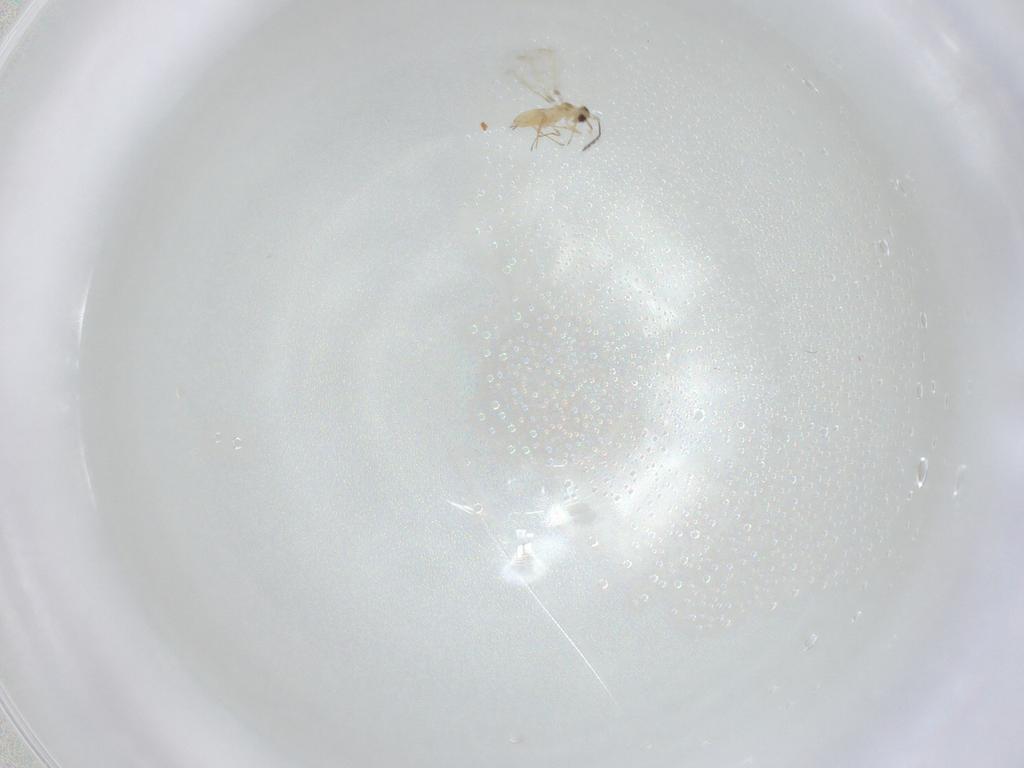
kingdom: Animalia
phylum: Arthropoda
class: Insecta
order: Hymenoptera
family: Mymaridae
